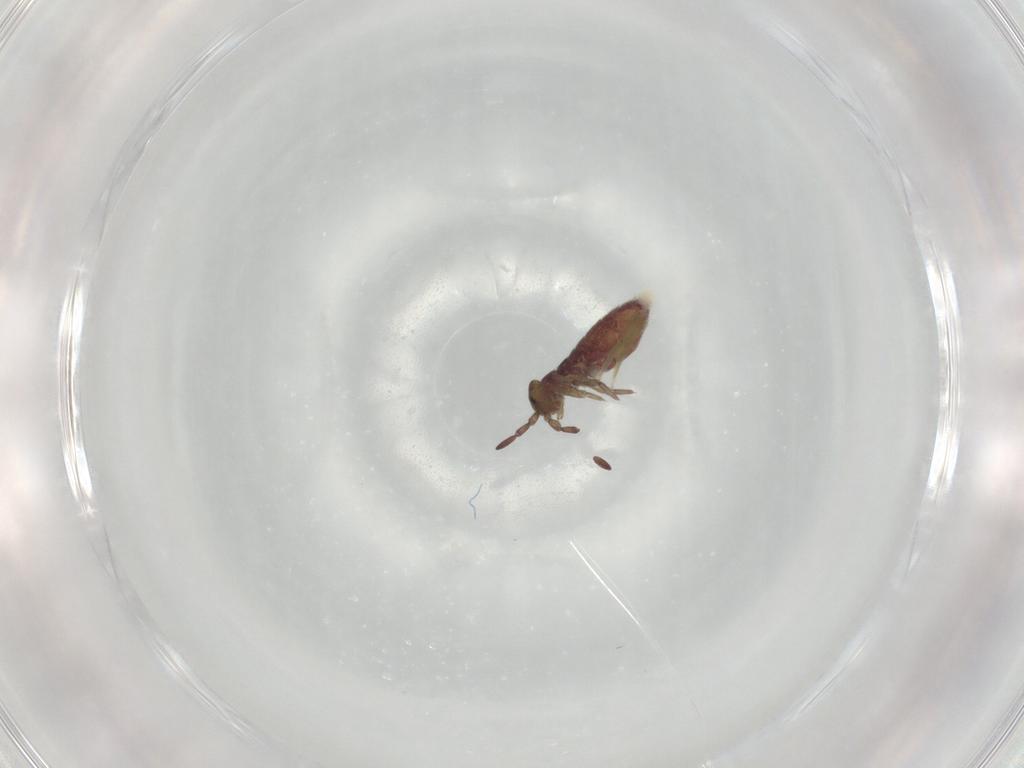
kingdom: Animalia
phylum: Arthropoda
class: Collembola
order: Entomobryomorpha
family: Isotomidae
